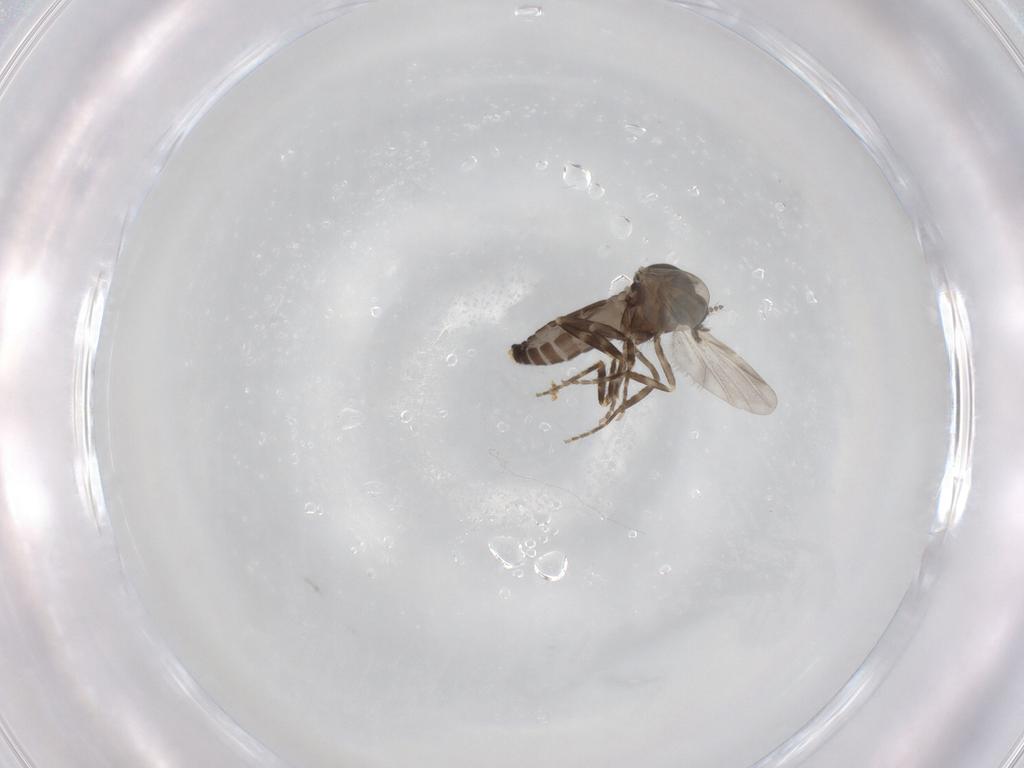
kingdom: Animalia
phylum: Arthropoda
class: Insecta
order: Diptera
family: Ceratopogonidae
